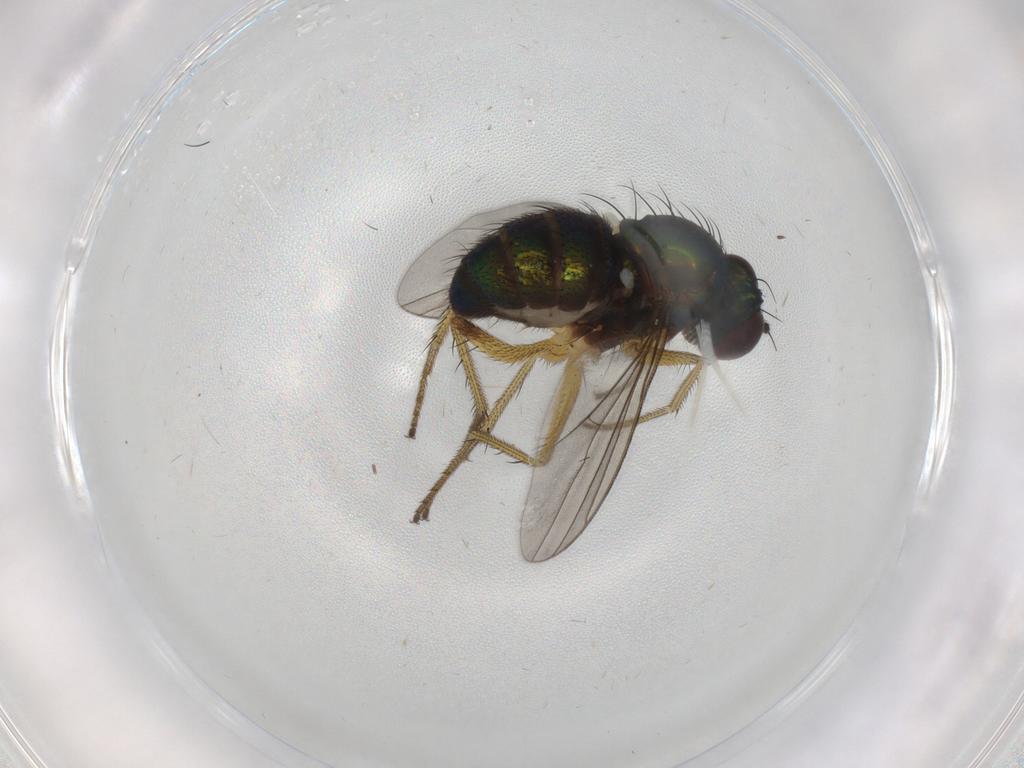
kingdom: Animalia
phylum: Arthropoda
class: Insecta
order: Diptera
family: Dolichopodidae
